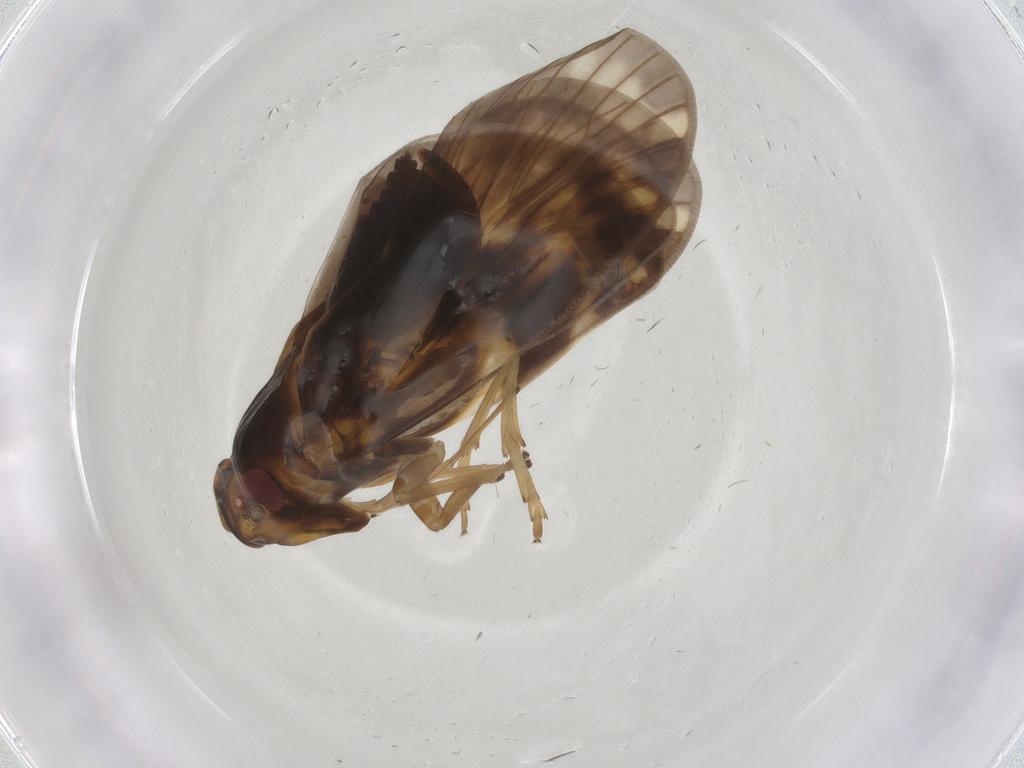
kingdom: Animalia
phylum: Arthropoda
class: Insecta
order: Hemiptera
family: Cixiidae
